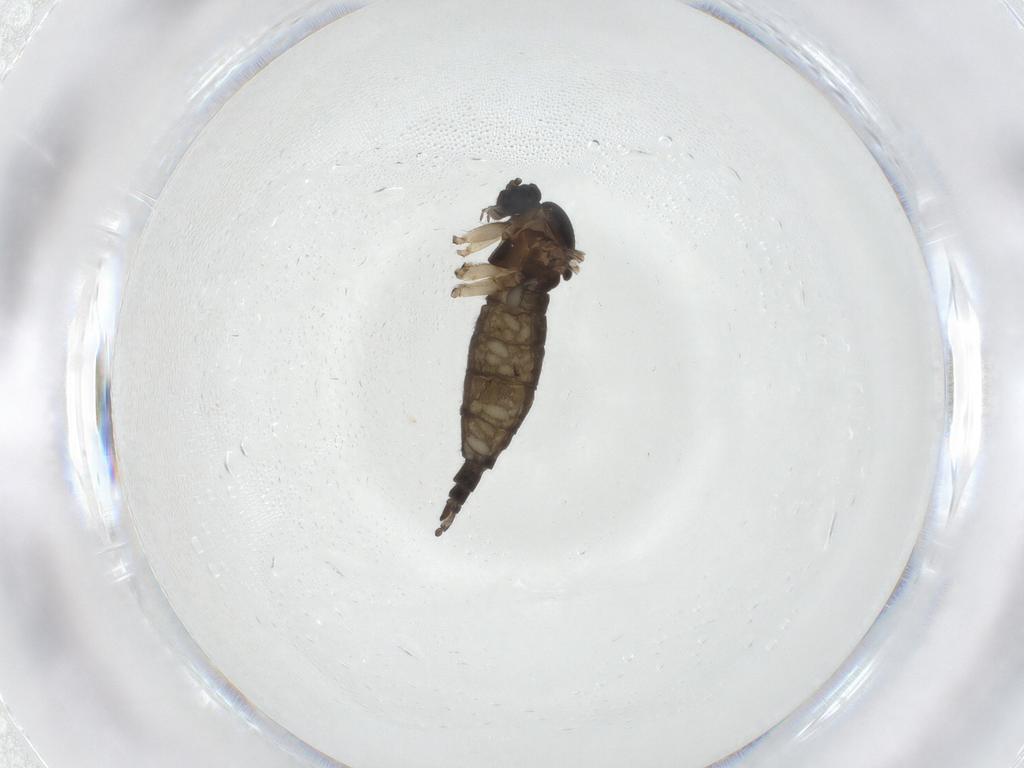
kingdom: Animalia
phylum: Arthropoda
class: Insecta
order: Diptera
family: Sciaridae
